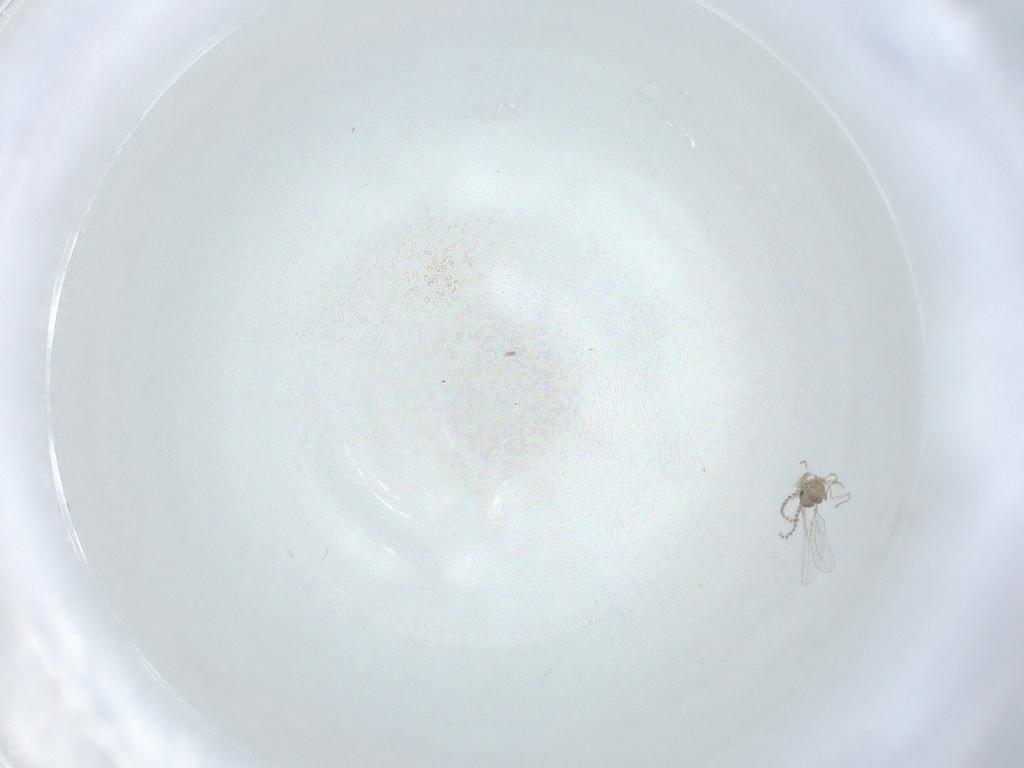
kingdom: Animalia
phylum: Arthropoda
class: Insecta
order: Diptera
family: Cecidomyiidae
